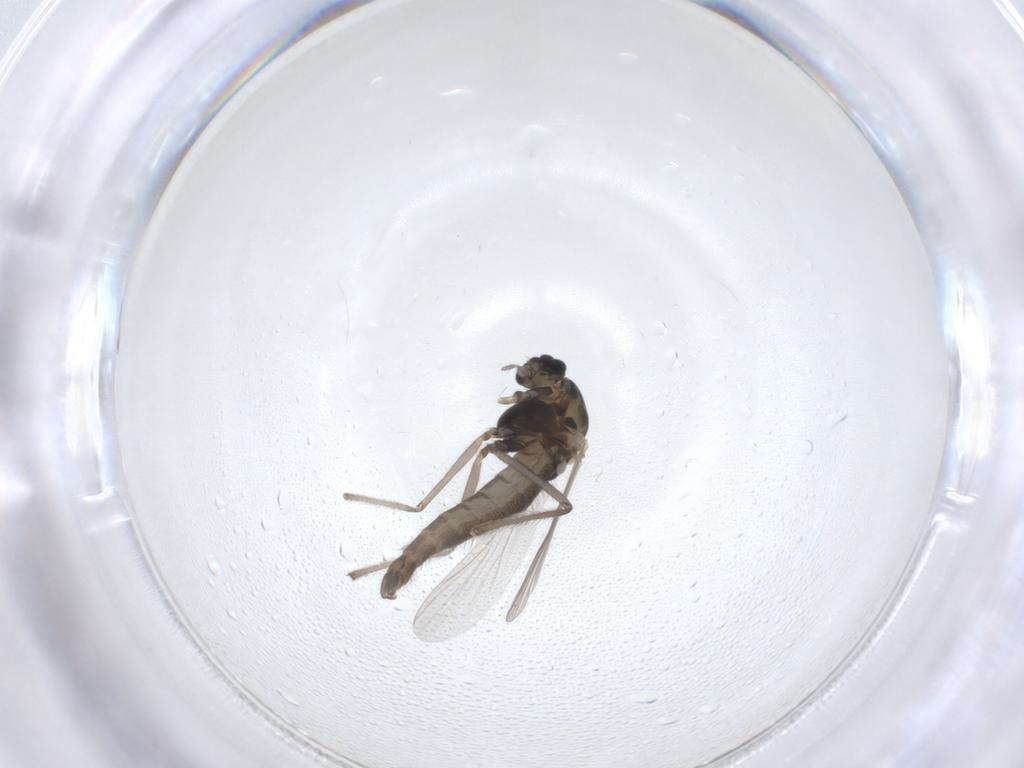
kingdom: Animalia
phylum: Arthropoda
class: Insecta
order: Diptera
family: Chironomidae
